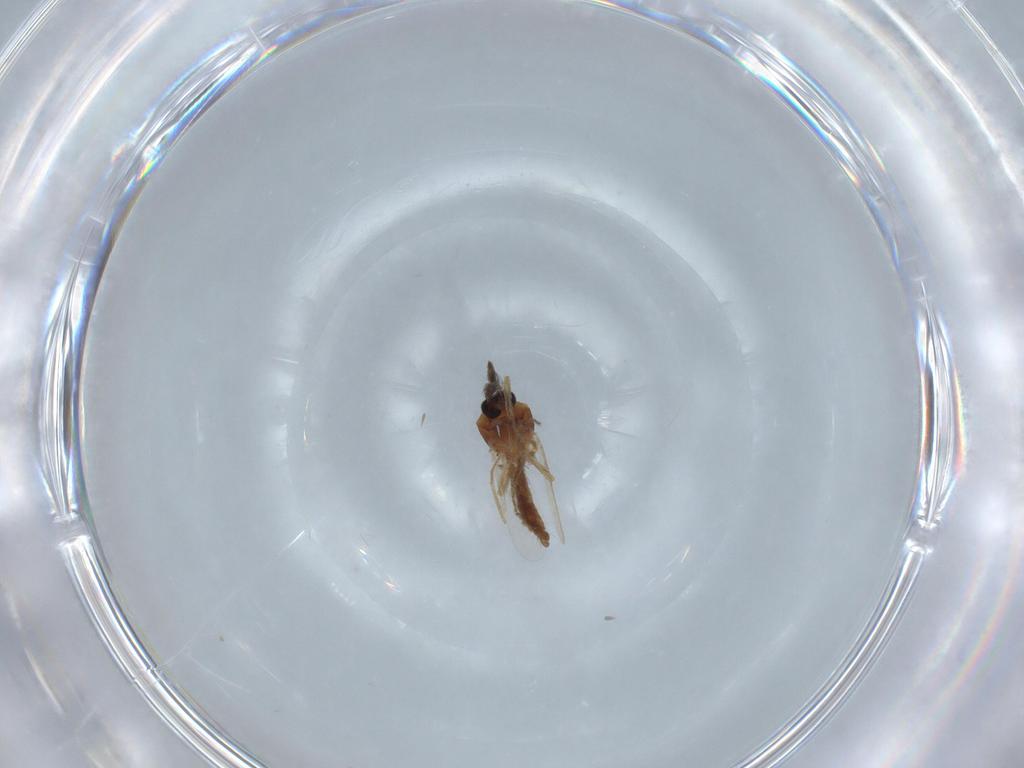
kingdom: Animalia
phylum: Arthropoda
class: Insecta
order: Diptera
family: Ceratopogonidae
